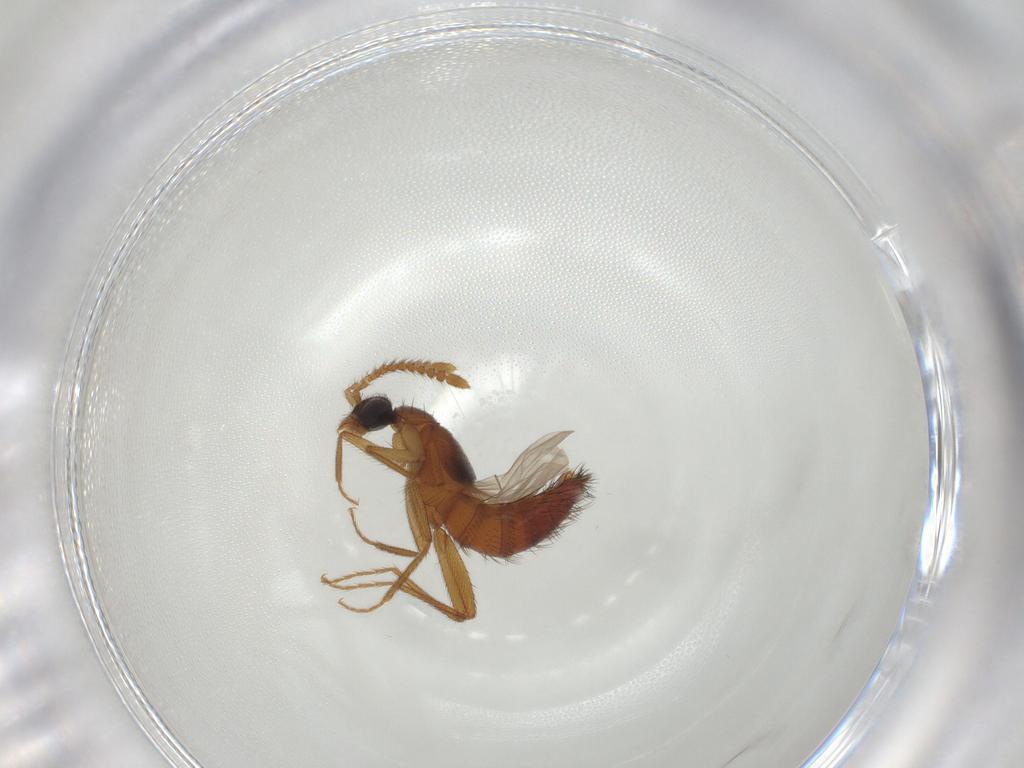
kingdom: Animalia
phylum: Arthropoda
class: Insecta
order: Coleoptera
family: Staphylinidae
